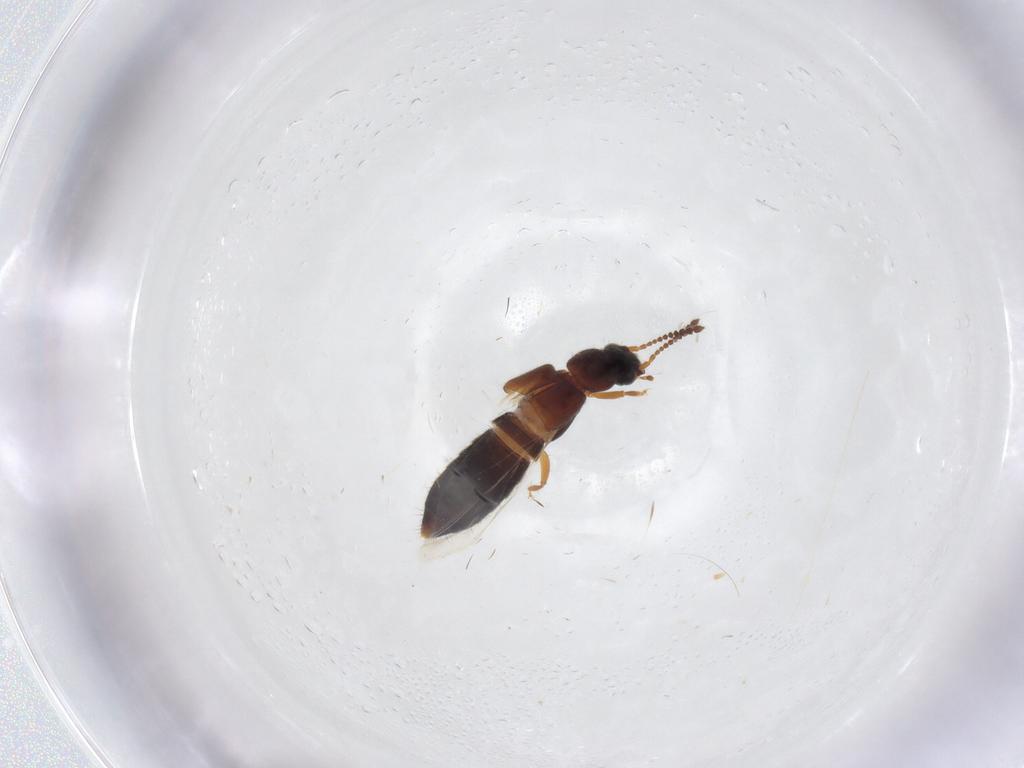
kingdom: Animalia
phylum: Arthropoda
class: Insecta
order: Coleoptera
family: Staphylinidae
